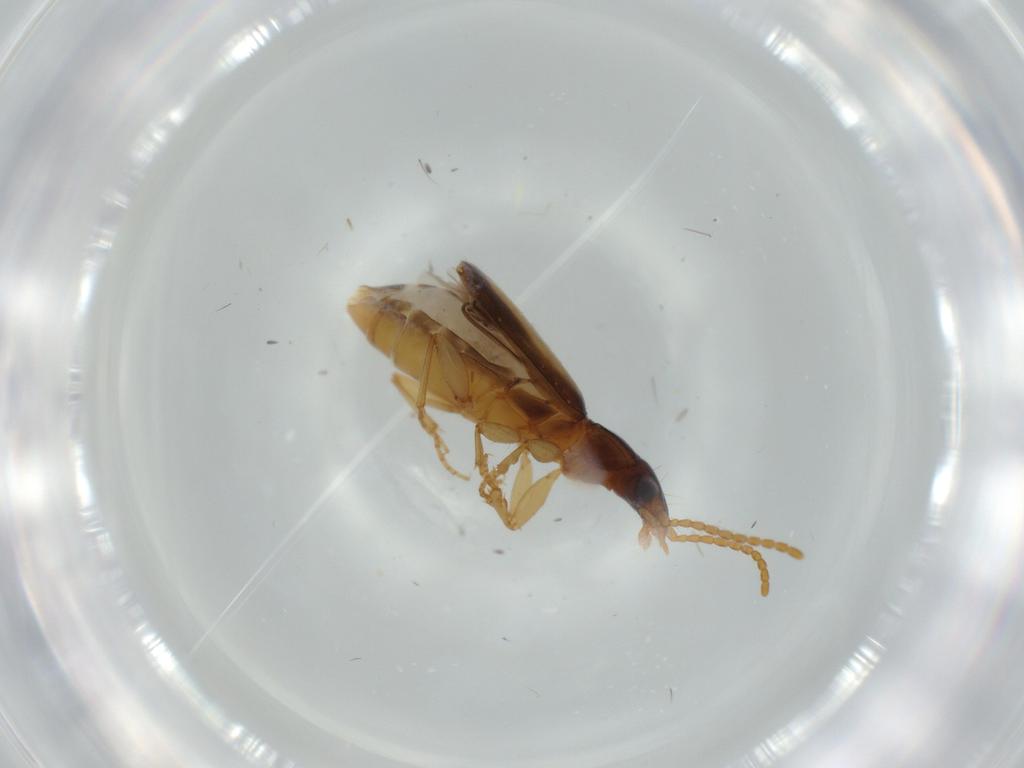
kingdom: Animalia
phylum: Arthropoda
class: Insecta
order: Coleoptera
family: Carabidae
